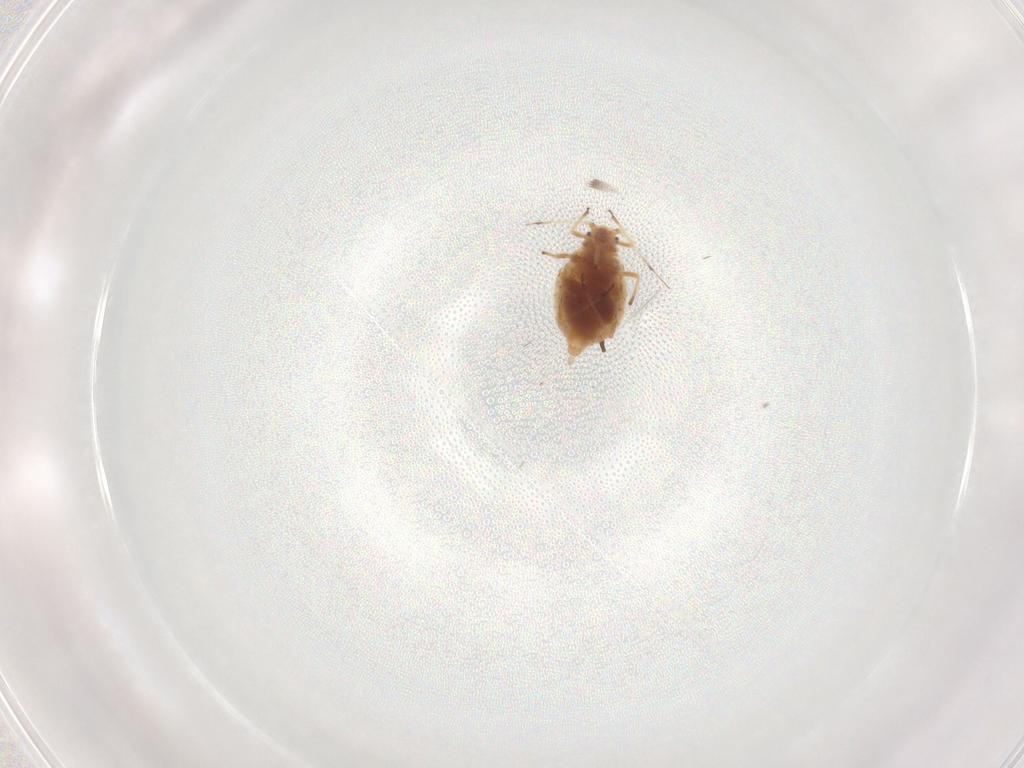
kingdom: Animalia
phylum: Arthropoda
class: Insecta
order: Hemiptera
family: Aphididae
